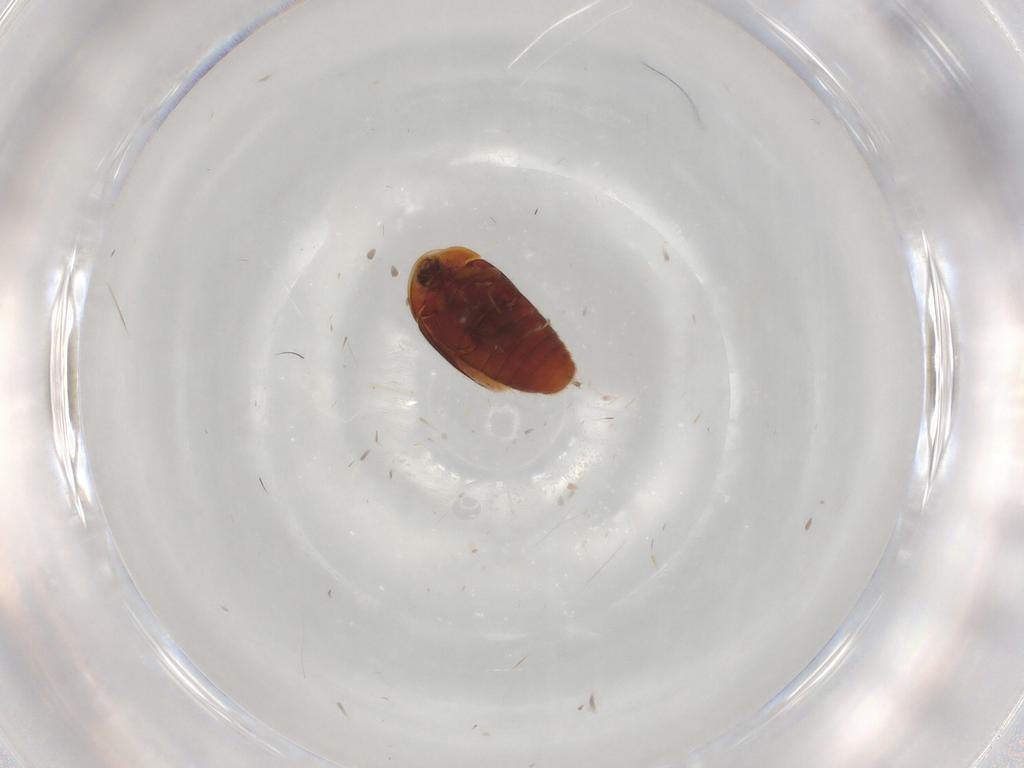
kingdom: Animalia
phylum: Arthropoda
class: Insecta
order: Coleoptera
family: Corylophidae
